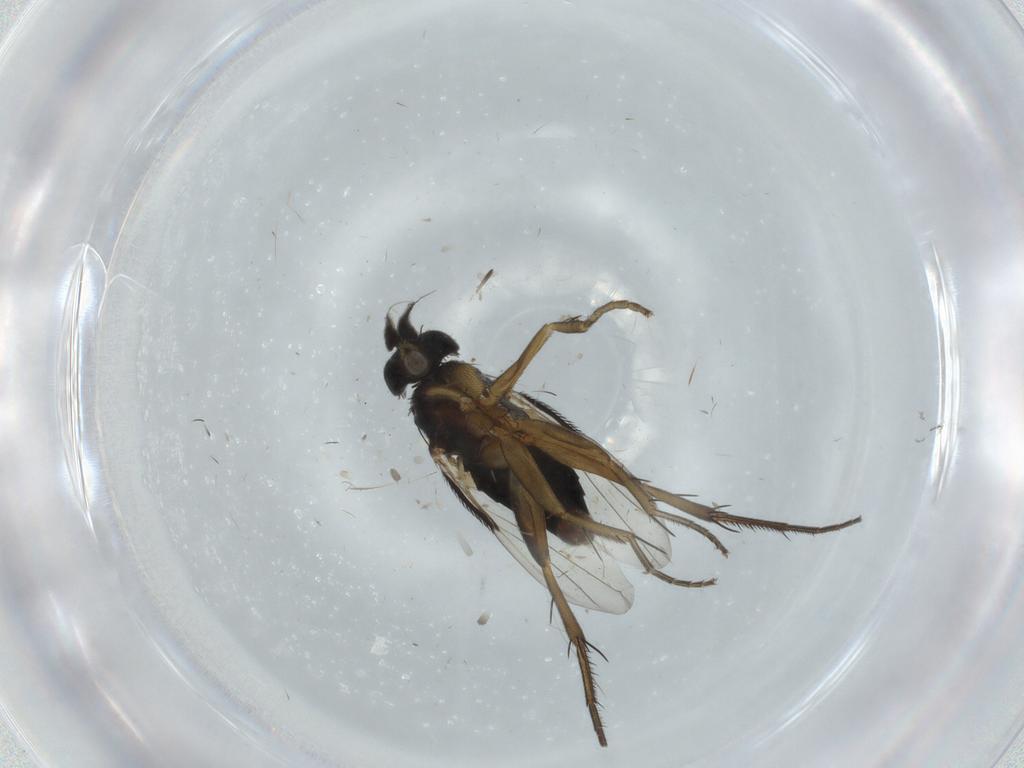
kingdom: Animalia
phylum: Arthropoda
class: Insecta
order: Diptera
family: Phoridae
